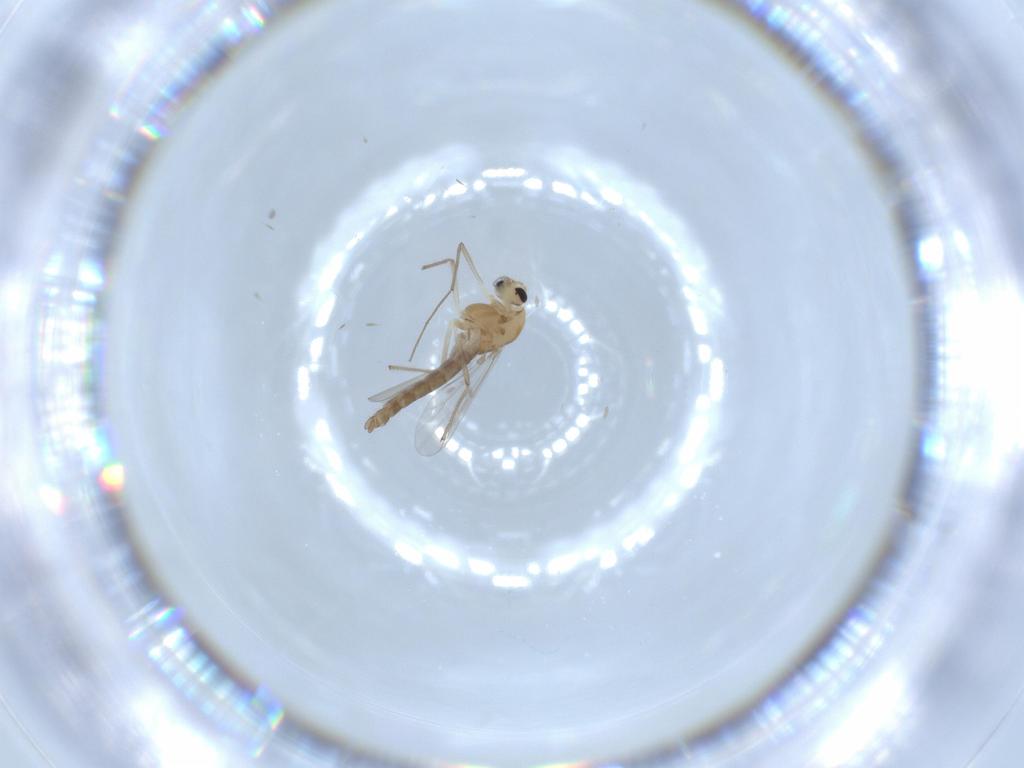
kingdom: Animalia
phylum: Arthropoda
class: Insecta
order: Diptera
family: Chironomidae
